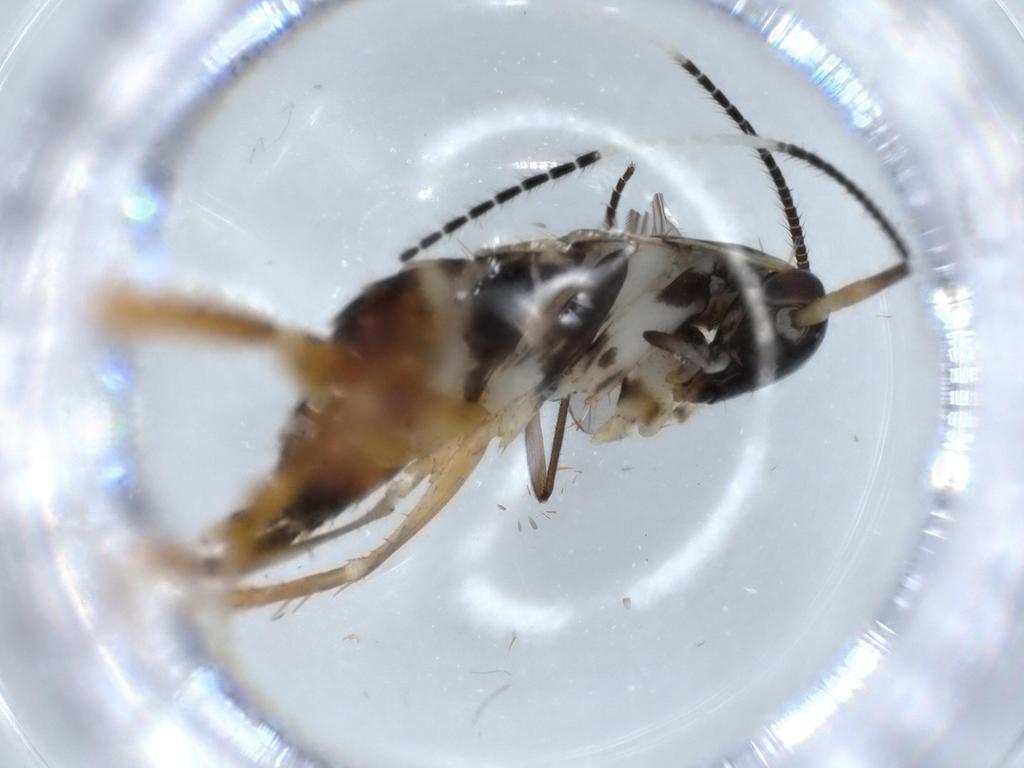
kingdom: Animalia
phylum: Arthropoda
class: Insecta
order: Blattodea
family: Ectobiidae
